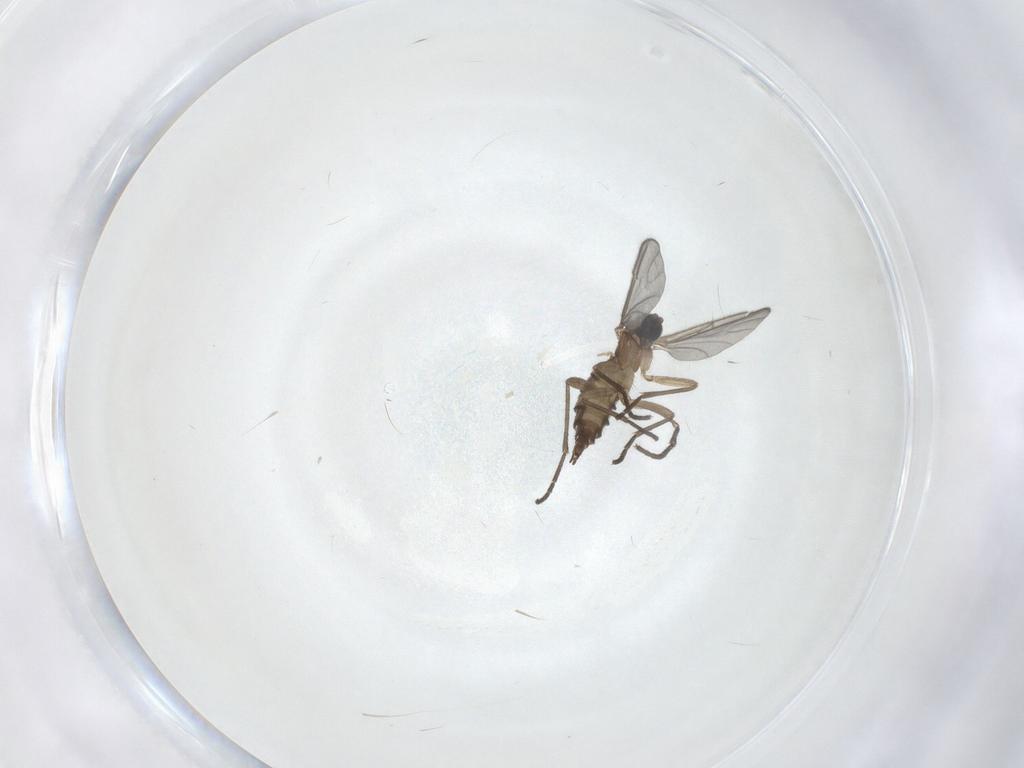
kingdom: Animalia
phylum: Arthropoda
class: Insecta
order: Diptera
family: Sciaridae
